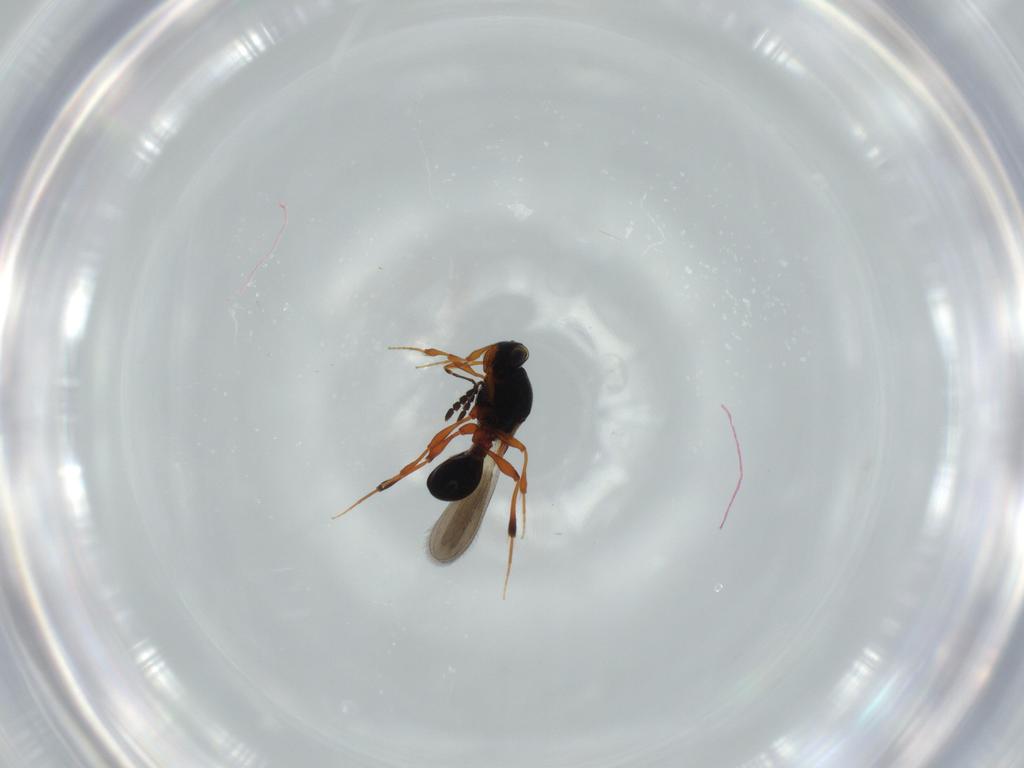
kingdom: Animalia
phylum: Arthropoda
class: Insecta
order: Hymenoptera
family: Platygastridae
